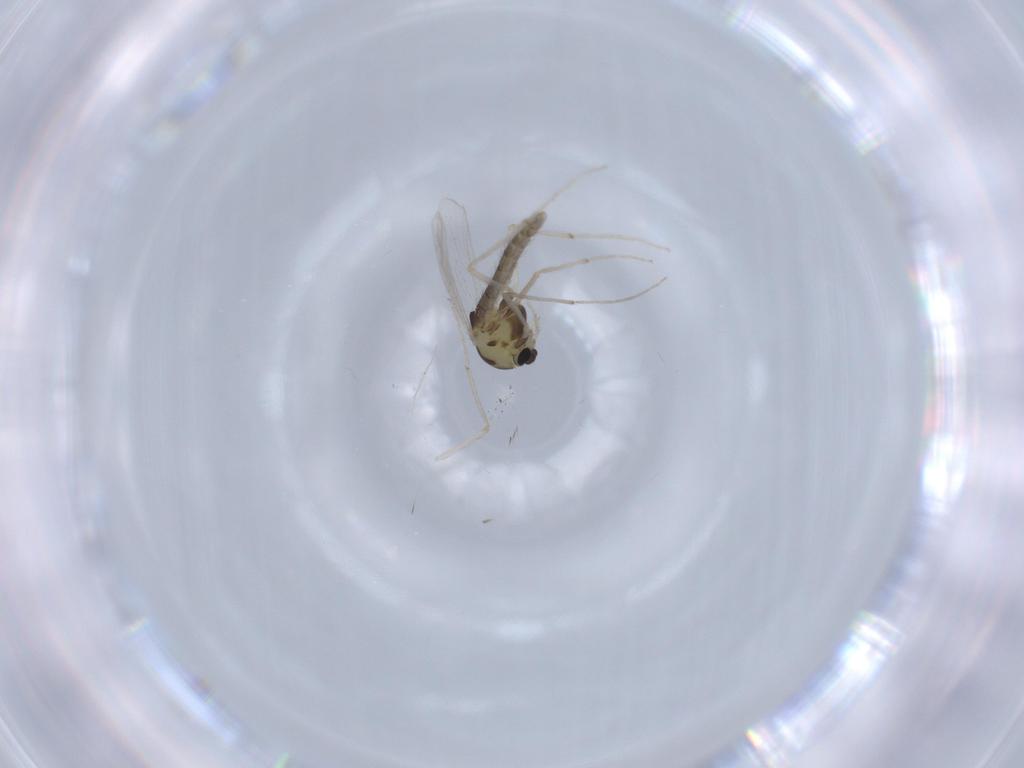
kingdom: Animalia
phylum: Arthropoda
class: Insecta
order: Diptera
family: Chironomidae
